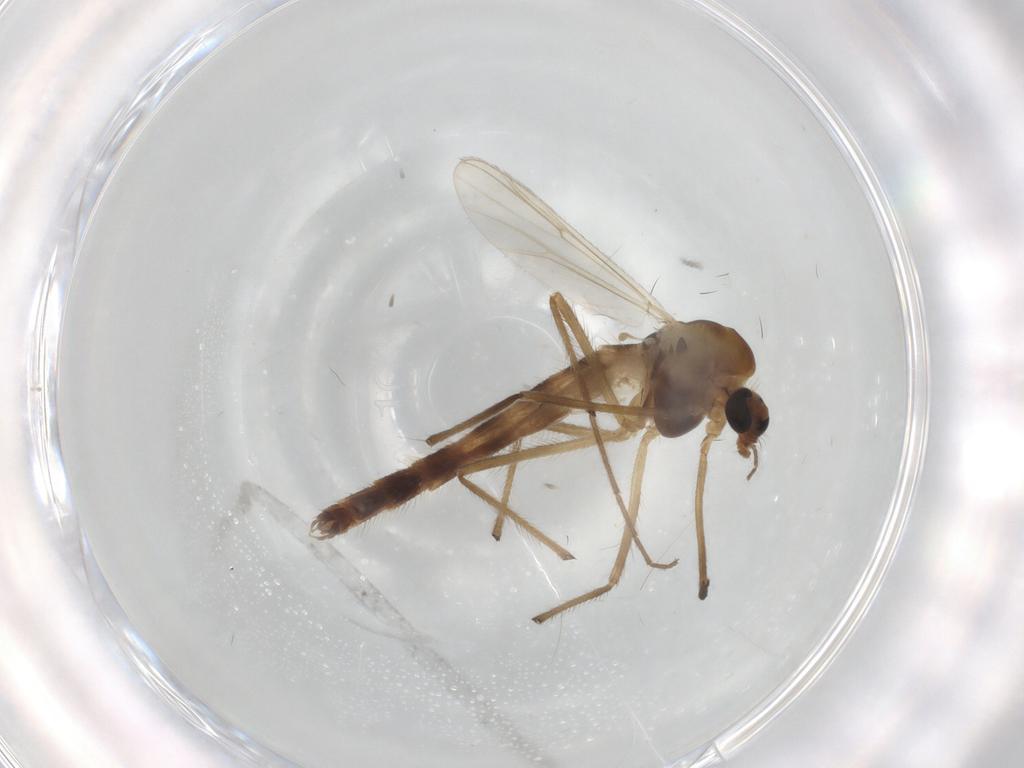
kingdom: Animalia
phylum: Arthropoda
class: Insecta
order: Diptera
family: Chironomidae
